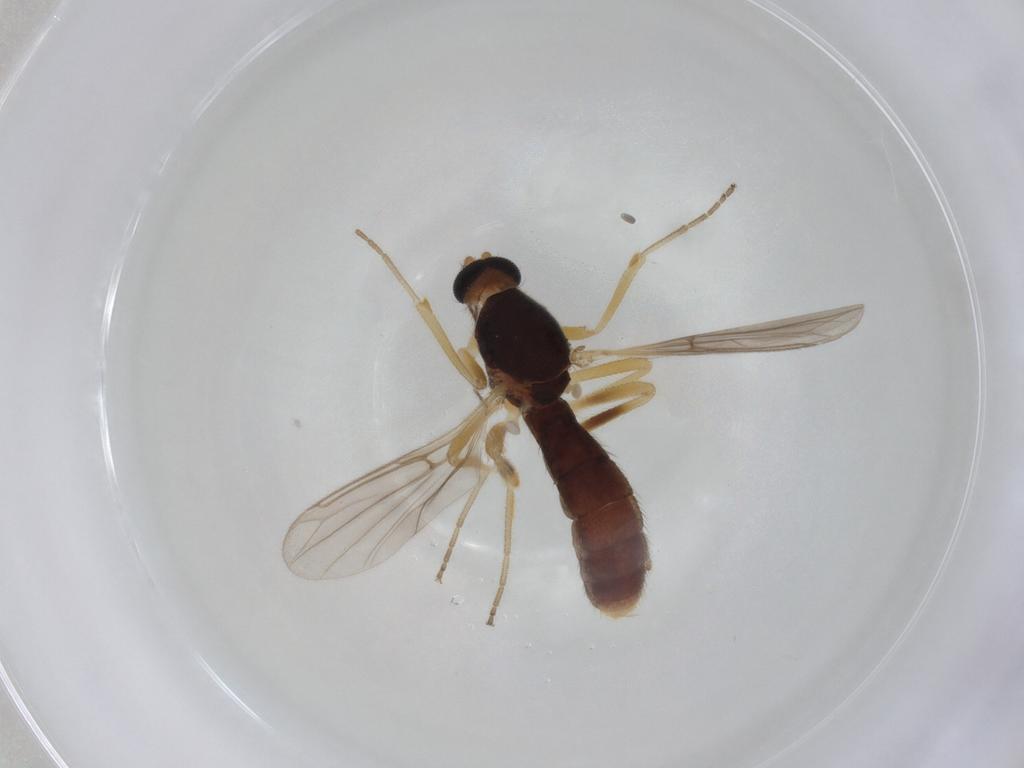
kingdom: Animalia
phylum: Arthropoda
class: Insecta
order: Diptera
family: Ceratopogonidae
